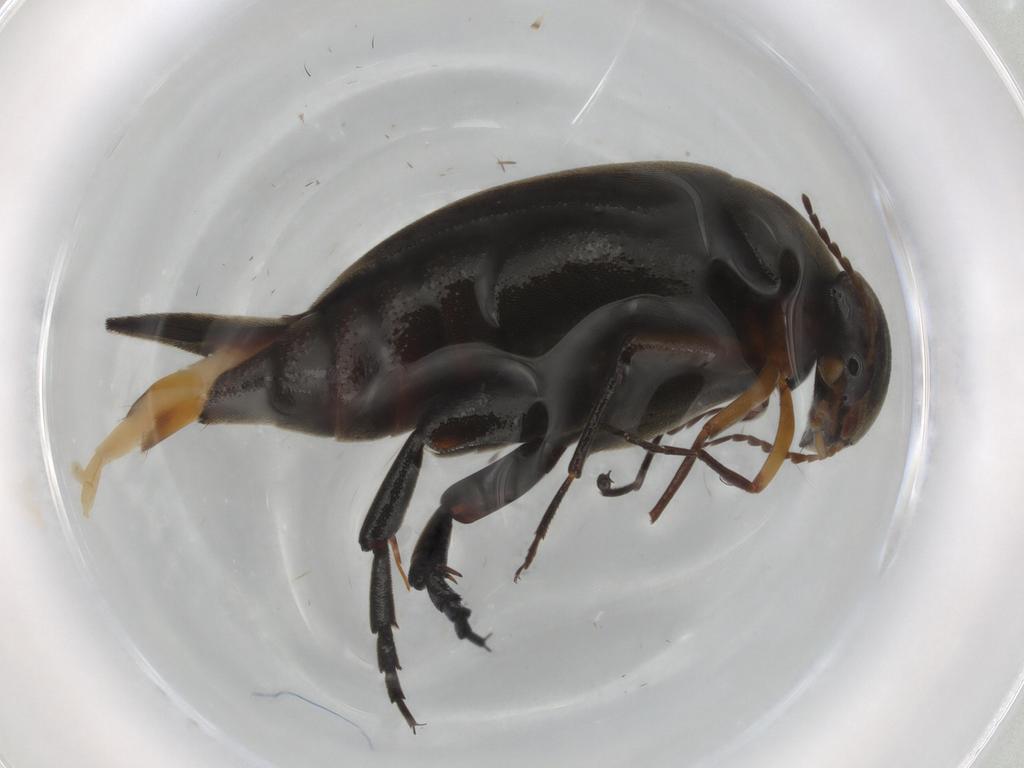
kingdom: Animalia
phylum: Arthropoda
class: Insecta
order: Coleoptera
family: Mordellidae
